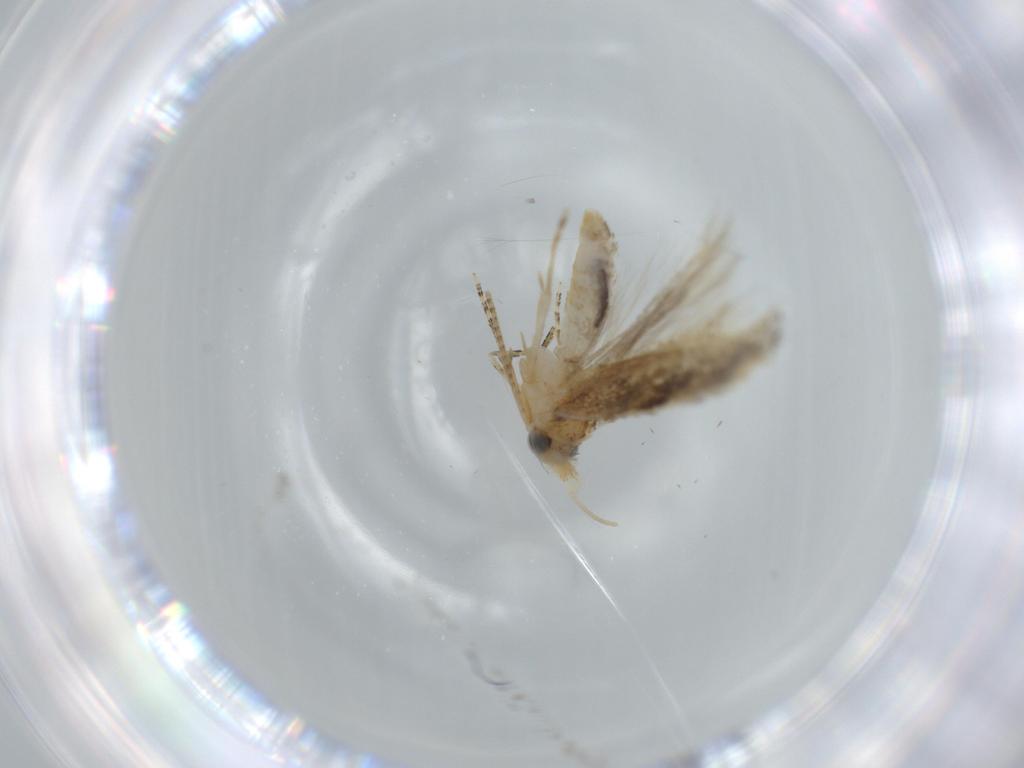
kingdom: Animalia
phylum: Arthropoda
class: Insecta
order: Lepidoptera
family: Bucculatricidae
